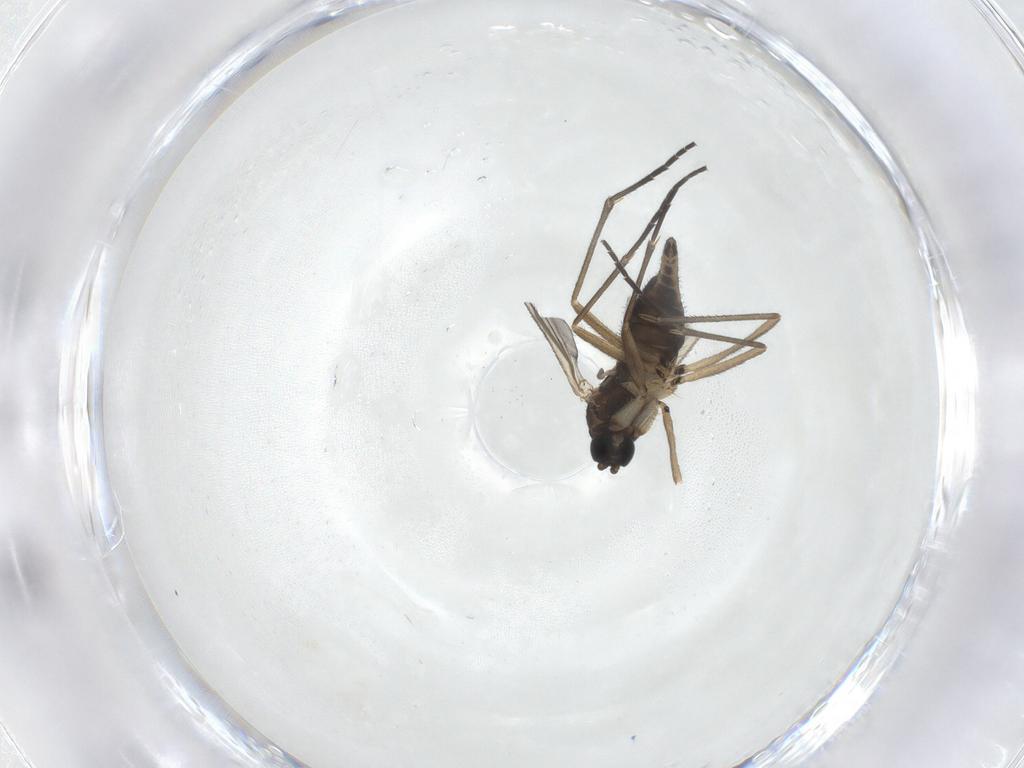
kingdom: Animalia
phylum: Arthropoda
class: Insecta
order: Diptera
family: Sciaridae
